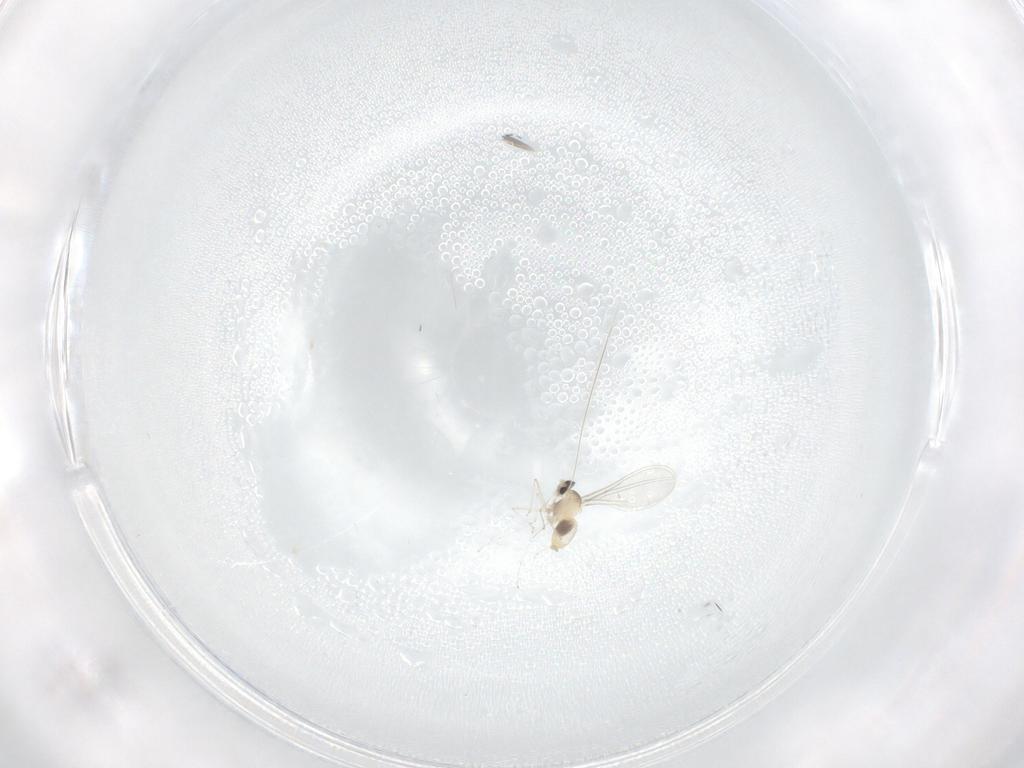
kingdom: Animalia
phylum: Arthropoda
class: Insecta
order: Diptera
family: Cecidomyiidae
